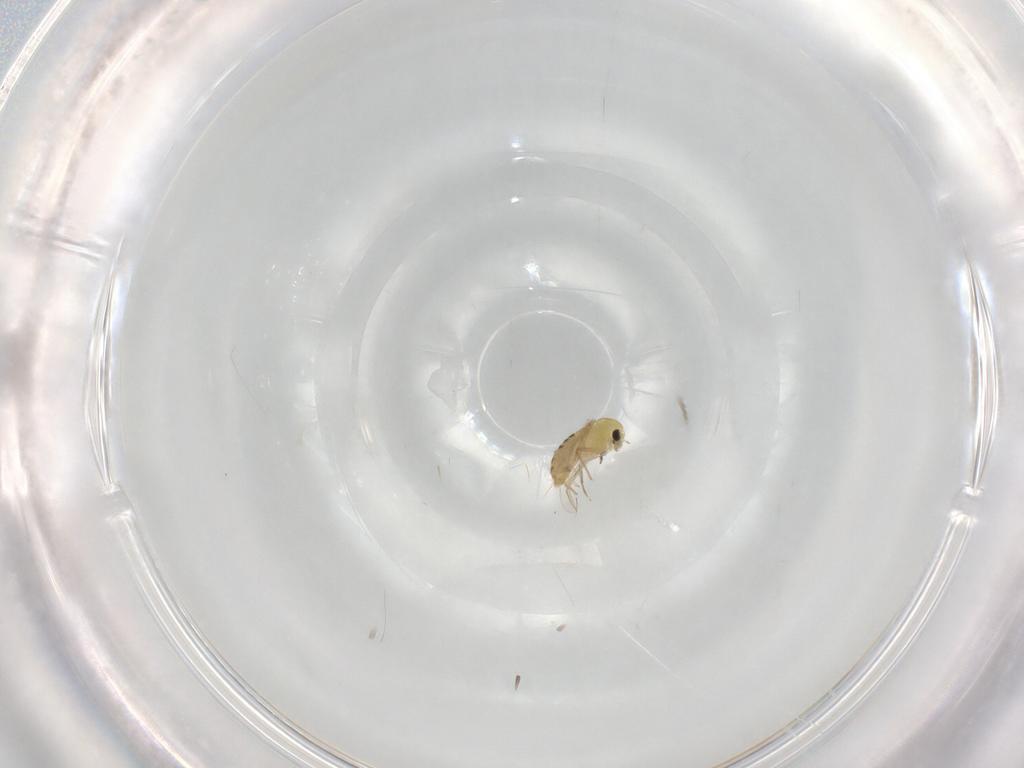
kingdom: Animalia
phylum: Arthropoda
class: Insecta
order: Diptera
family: Chironomidae
